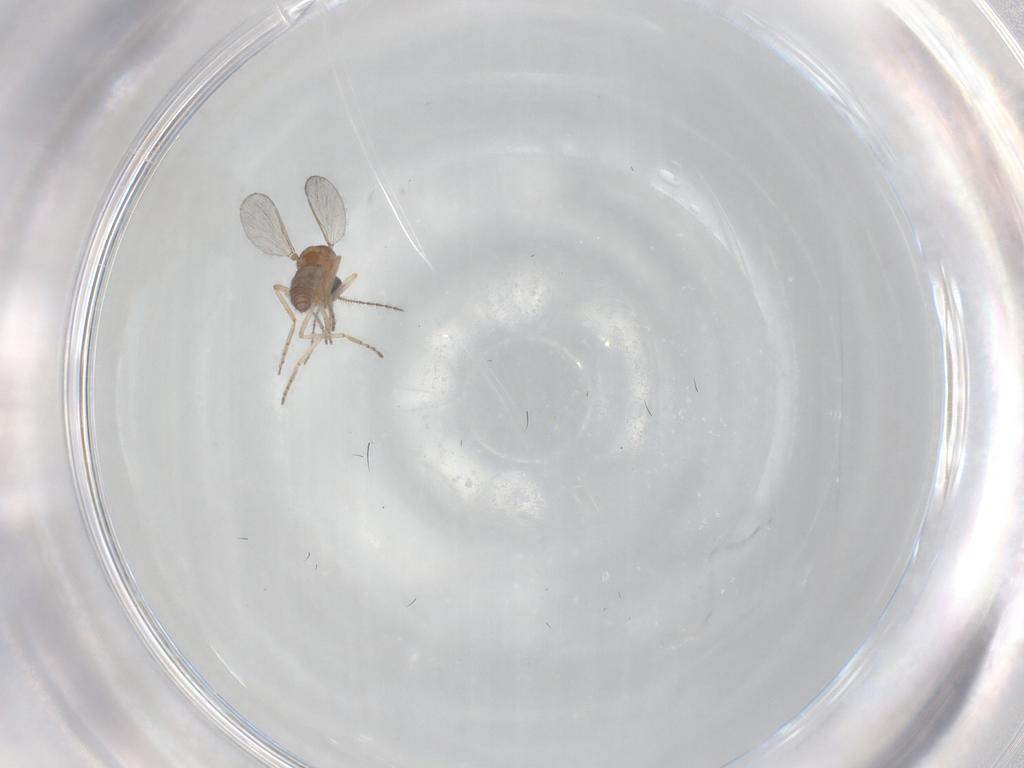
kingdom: Animalia
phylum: Arthropoda
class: Insecta
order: Diptera
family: Ceratopogonidae
